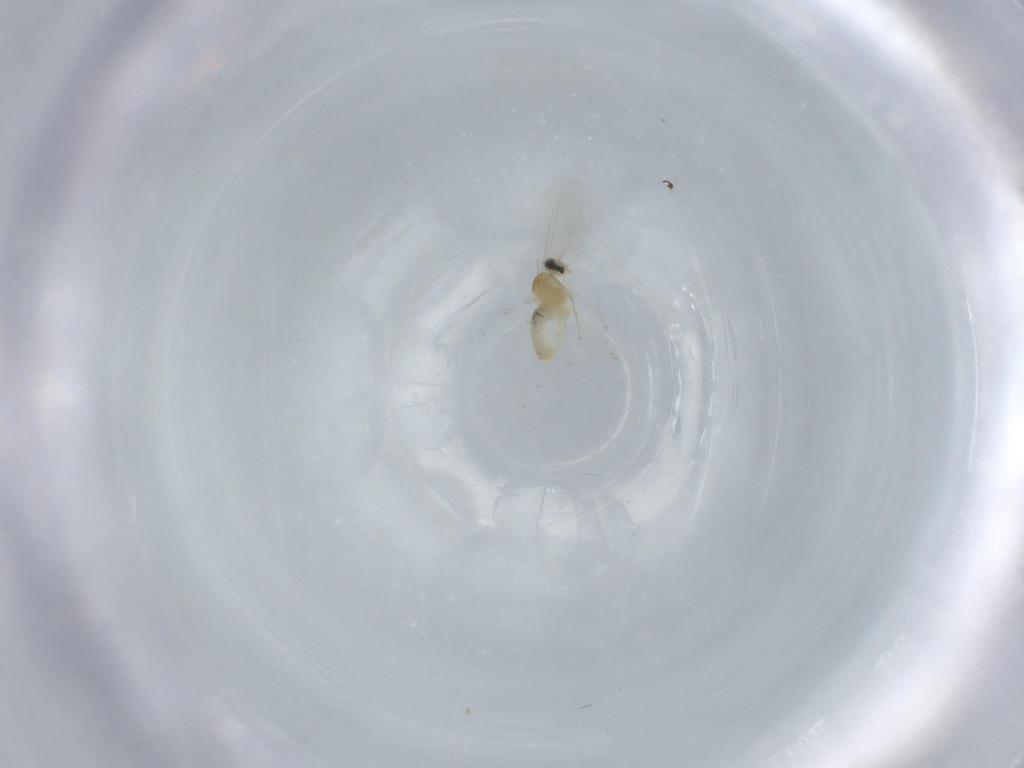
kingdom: Animalia
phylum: Arthropoda
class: Insecta
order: Diptera
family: Cecidomyiidae
